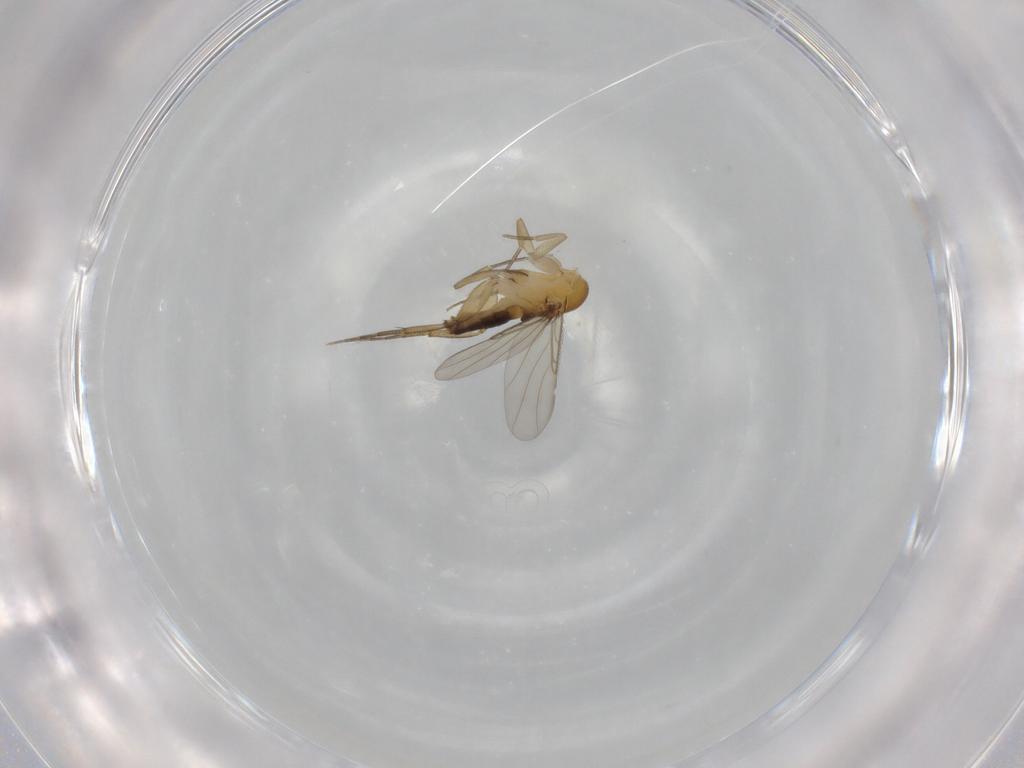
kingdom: Animalia
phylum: Arthropoda
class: Insecta
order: Diptera
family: Phoridae
